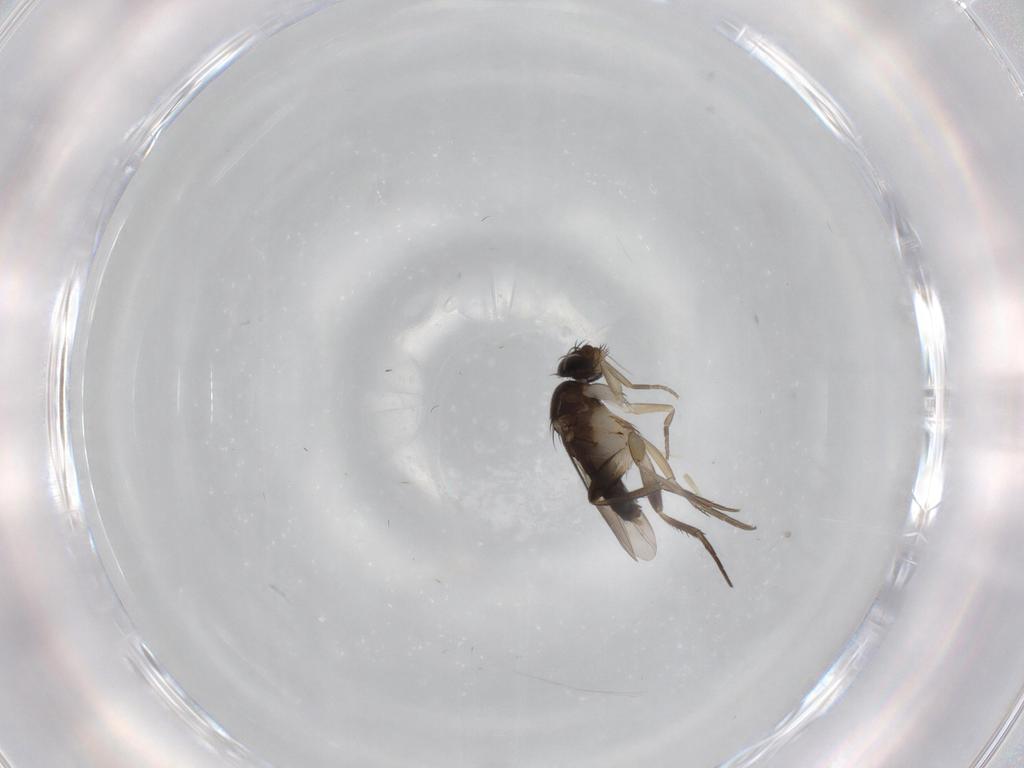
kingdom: Animalia
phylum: Arthropoda
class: Insecta
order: Diptera
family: Phoridae
